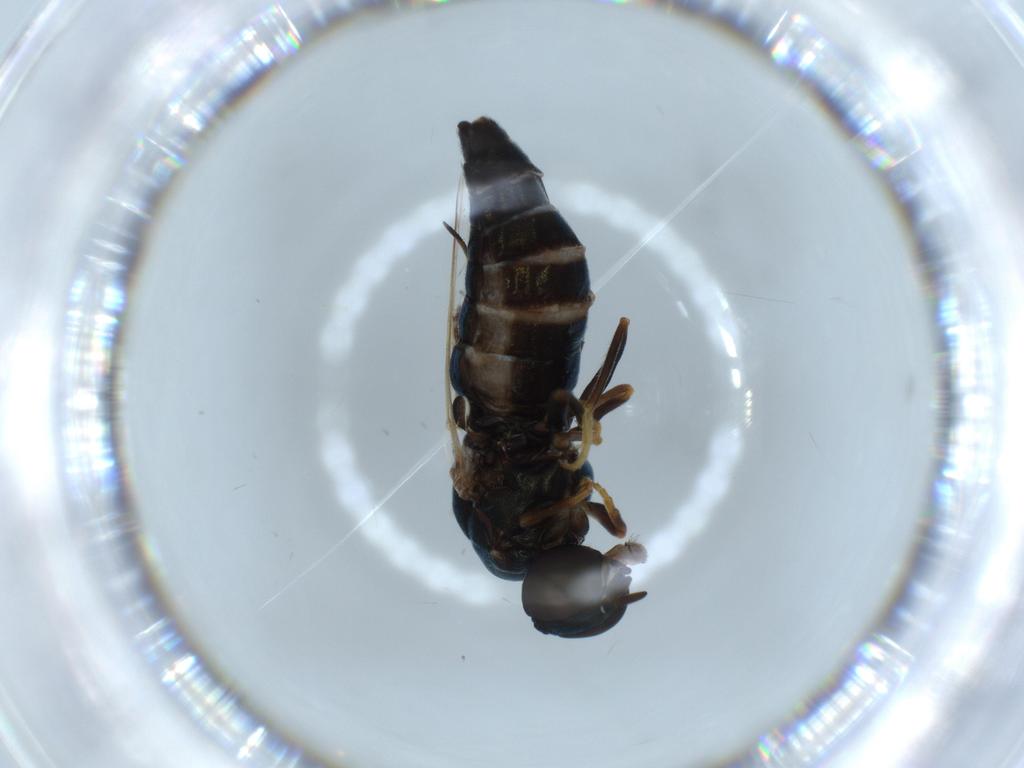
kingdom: Animalia
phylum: Arthropoda
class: Insecta
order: Diptera
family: Scenopinidae
